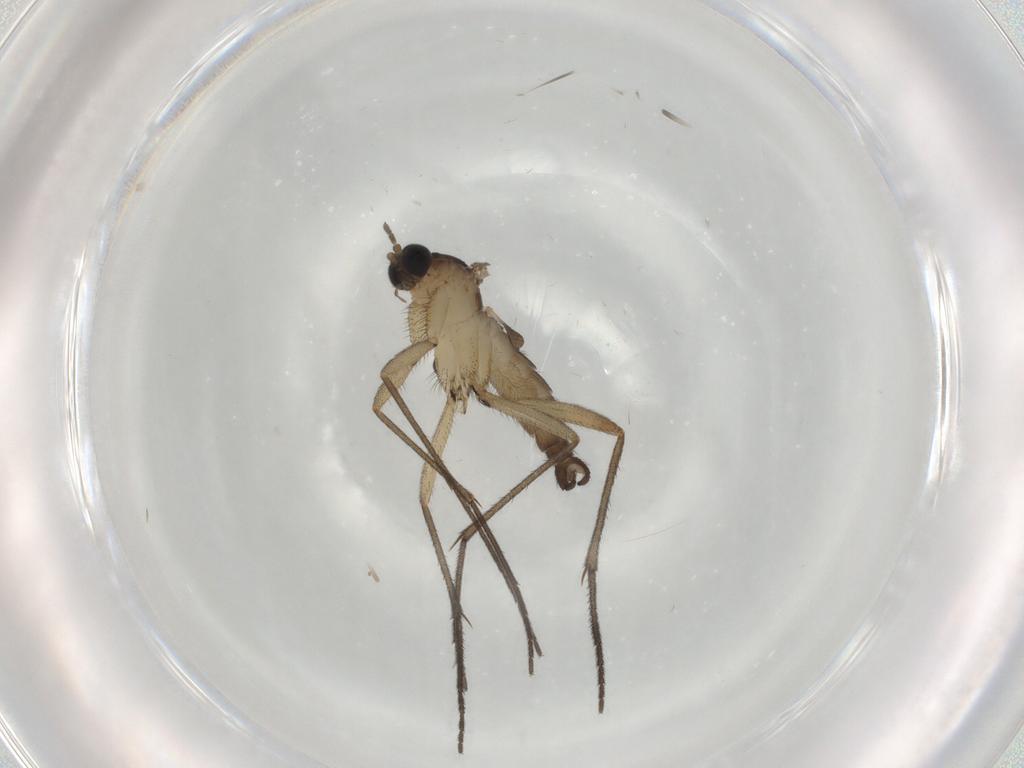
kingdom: Animalia
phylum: Arthropoda
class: Insecta
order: Diptera
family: Sciaridae
